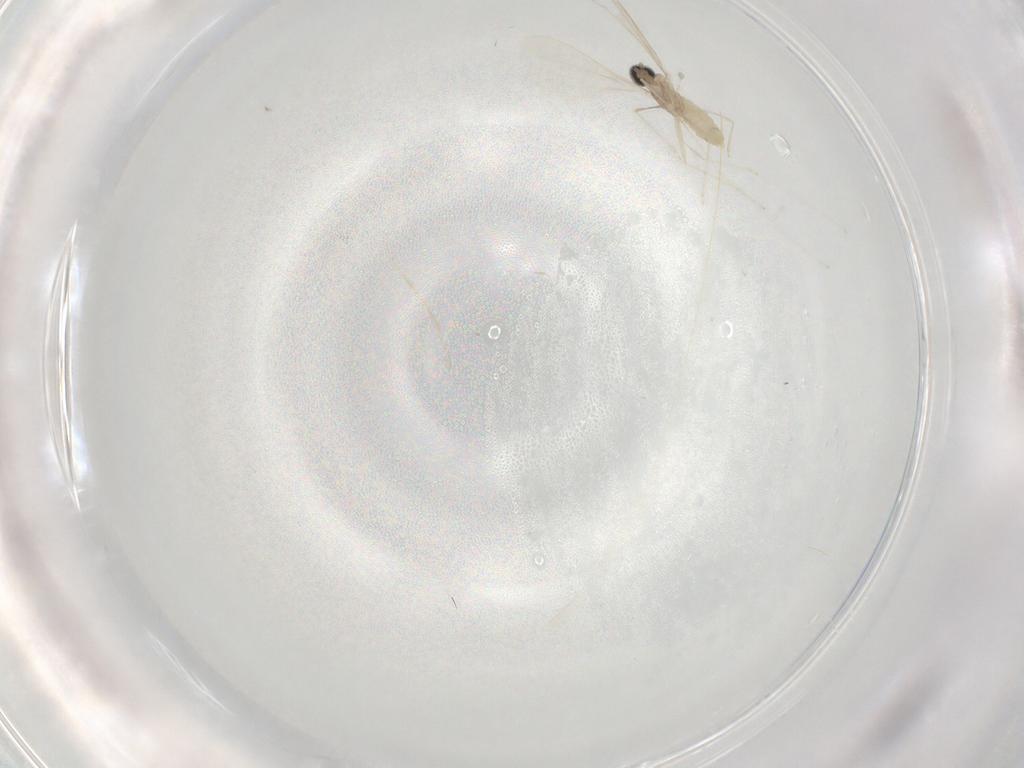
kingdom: Animalia
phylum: Arthropoda
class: Insecta
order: Diptera
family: Cecidomyiidae
